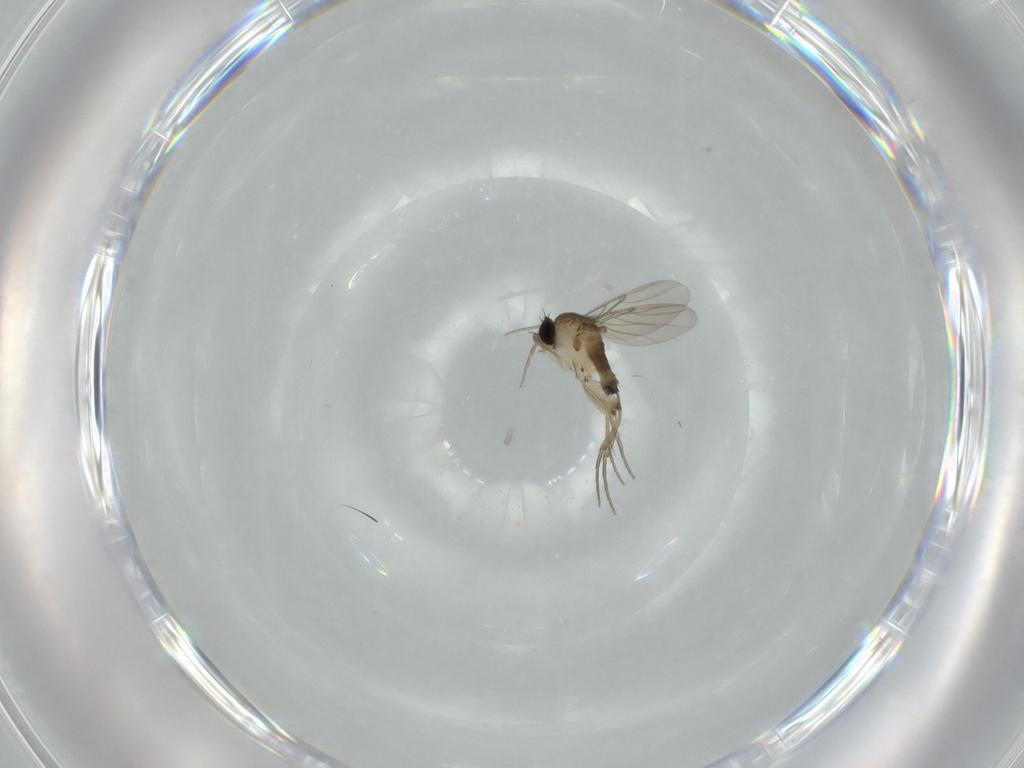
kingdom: Animalia
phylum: Arthropoda
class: Insecta
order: Diptera
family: Phoridae
